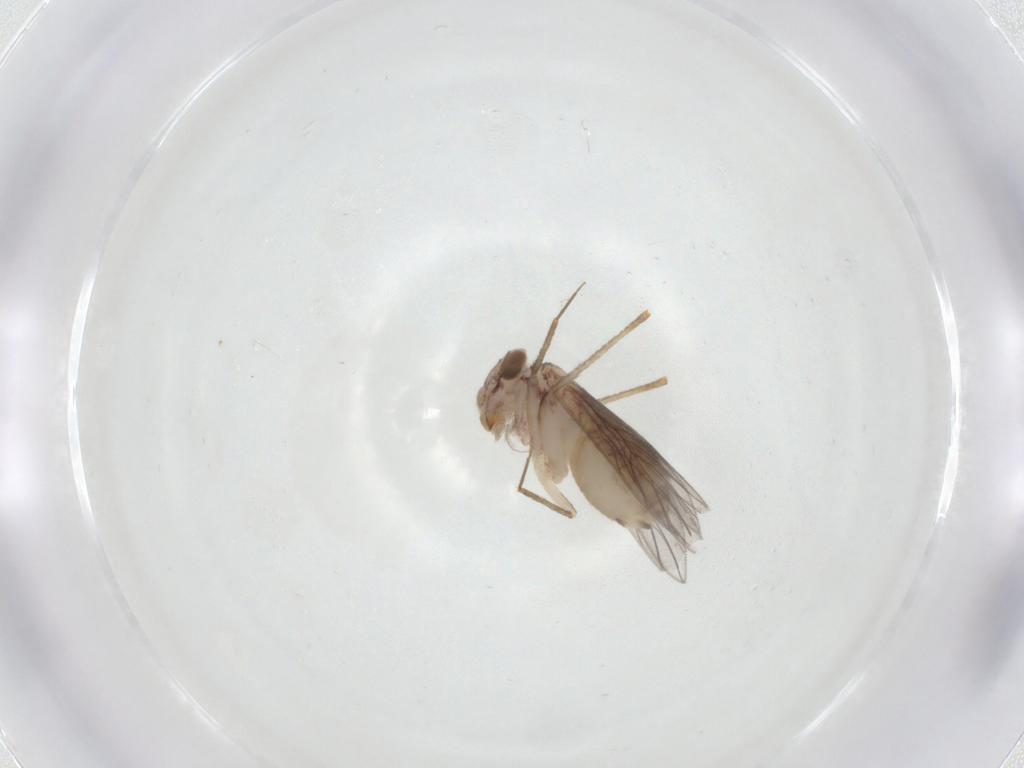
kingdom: Animalia
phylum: Arthropoda
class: Insecta
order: Psocodea
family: Lepidopsocidae
